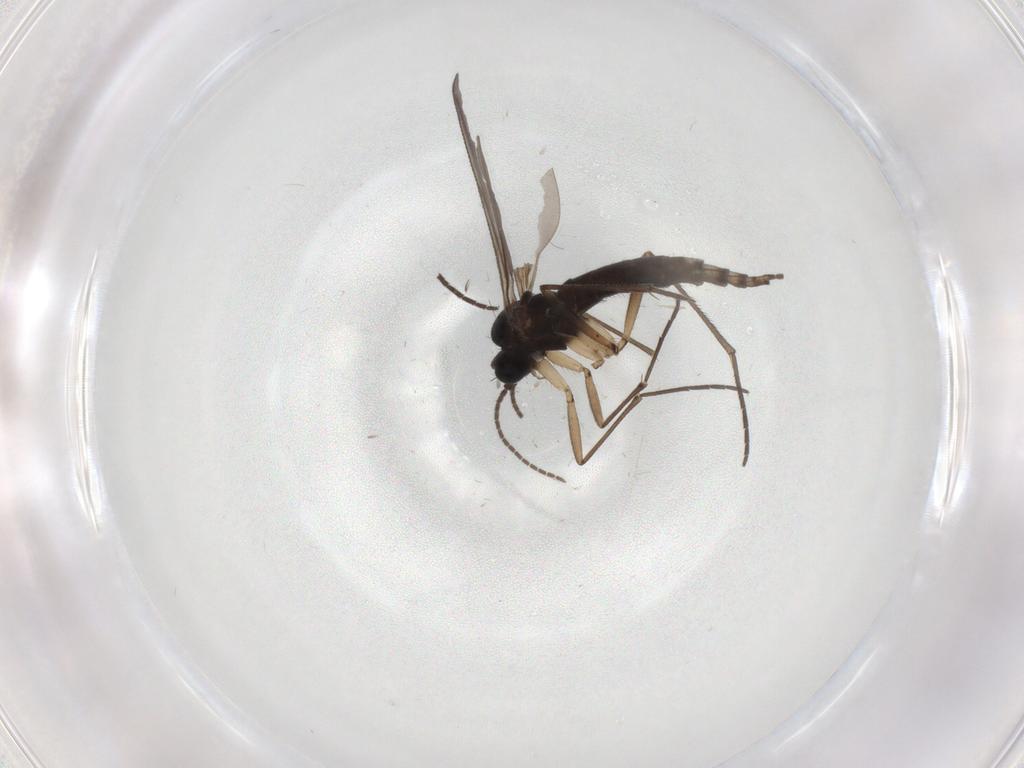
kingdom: Animalia
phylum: Arthropoda
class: Insecta
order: Diptera
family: Sciaridae
